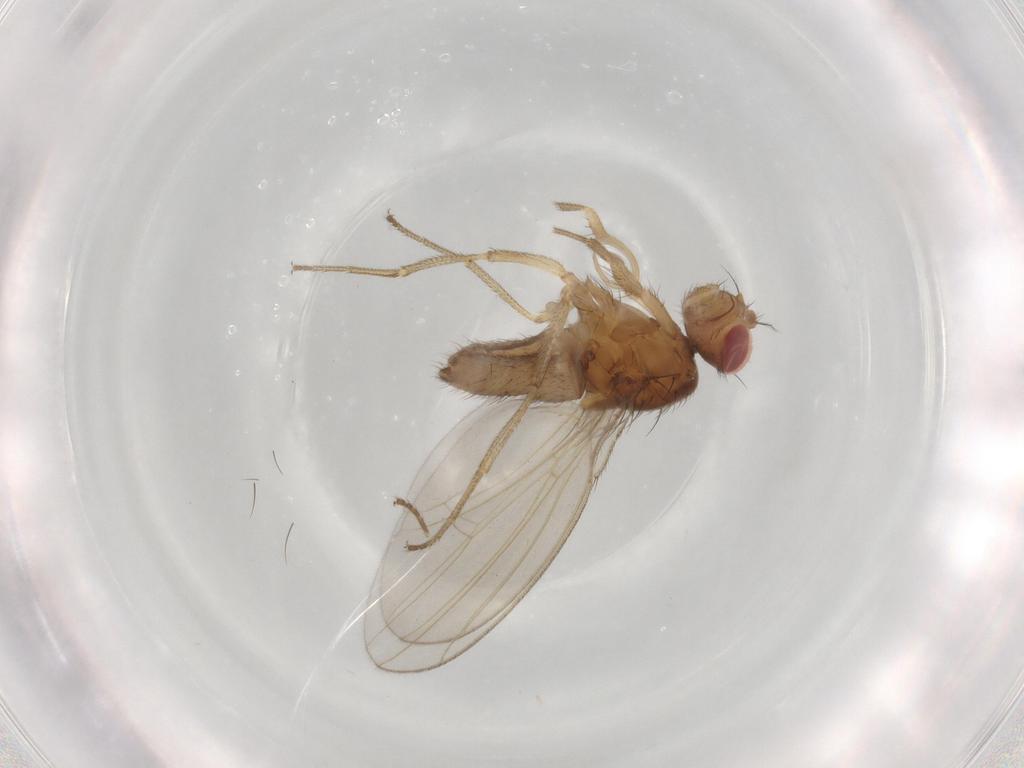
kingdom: Animalia
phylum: Arthropoda
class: Insecta
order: Diptera
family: Drosophilidae
